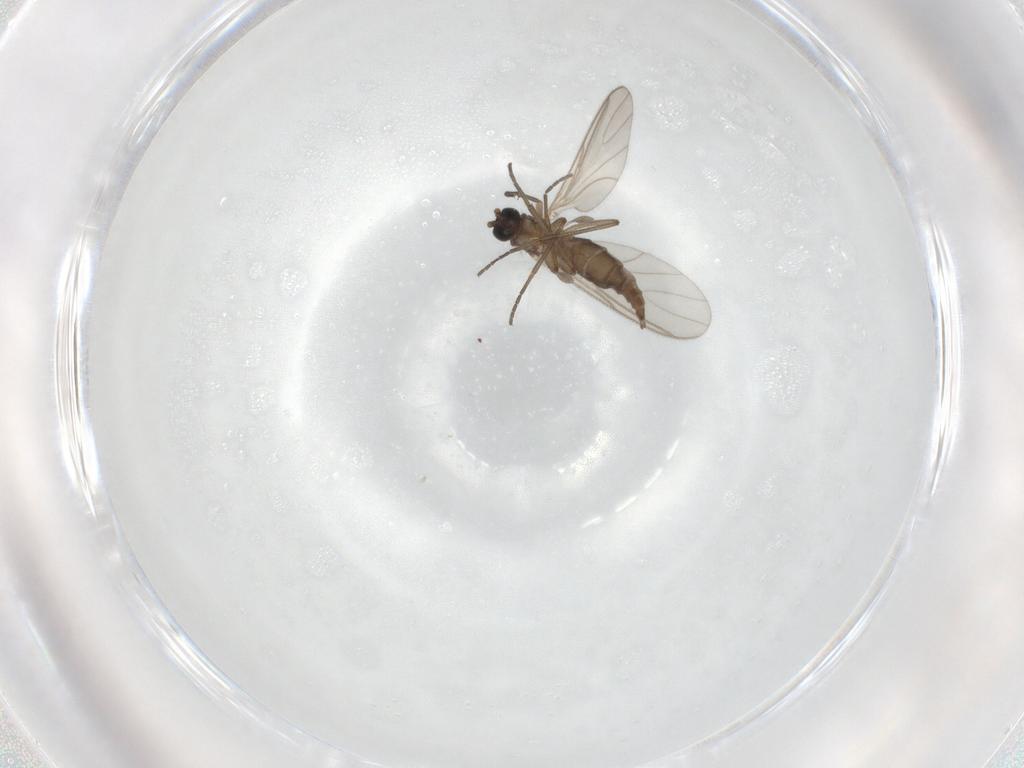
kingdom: Animalia
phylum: Arthropoda
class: Insecta
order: Diptera
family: Sciaridae
